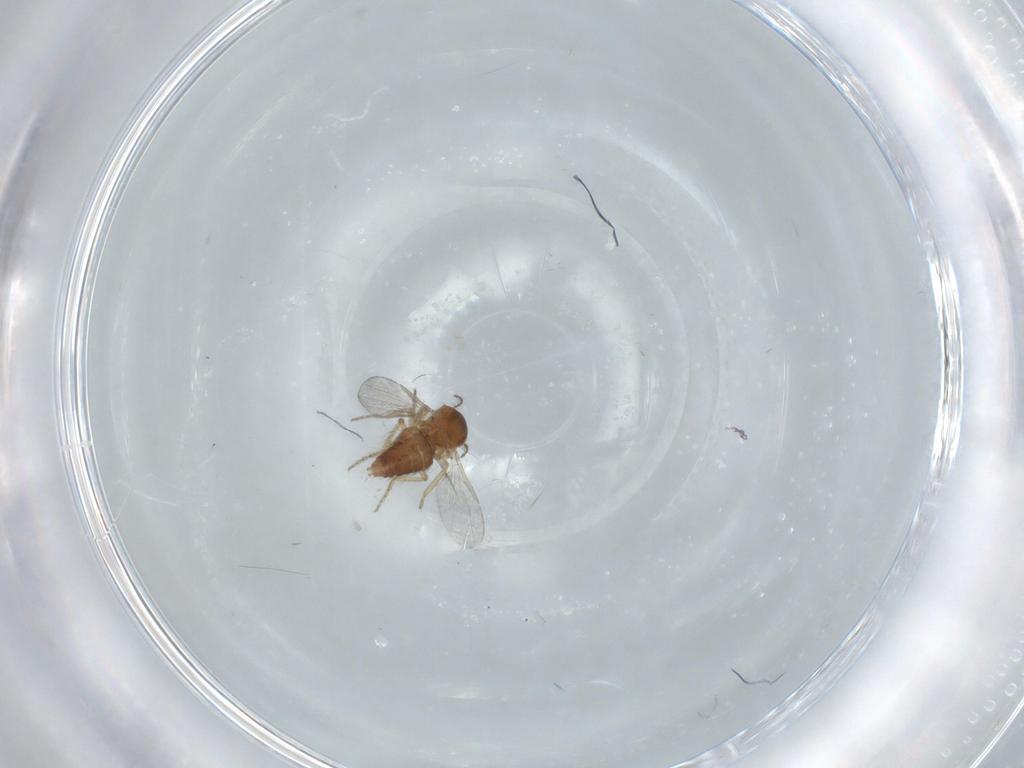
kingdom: Animalia
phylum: Arthropoda
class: Insecta
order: Diptera
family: Ceratopogonidae
